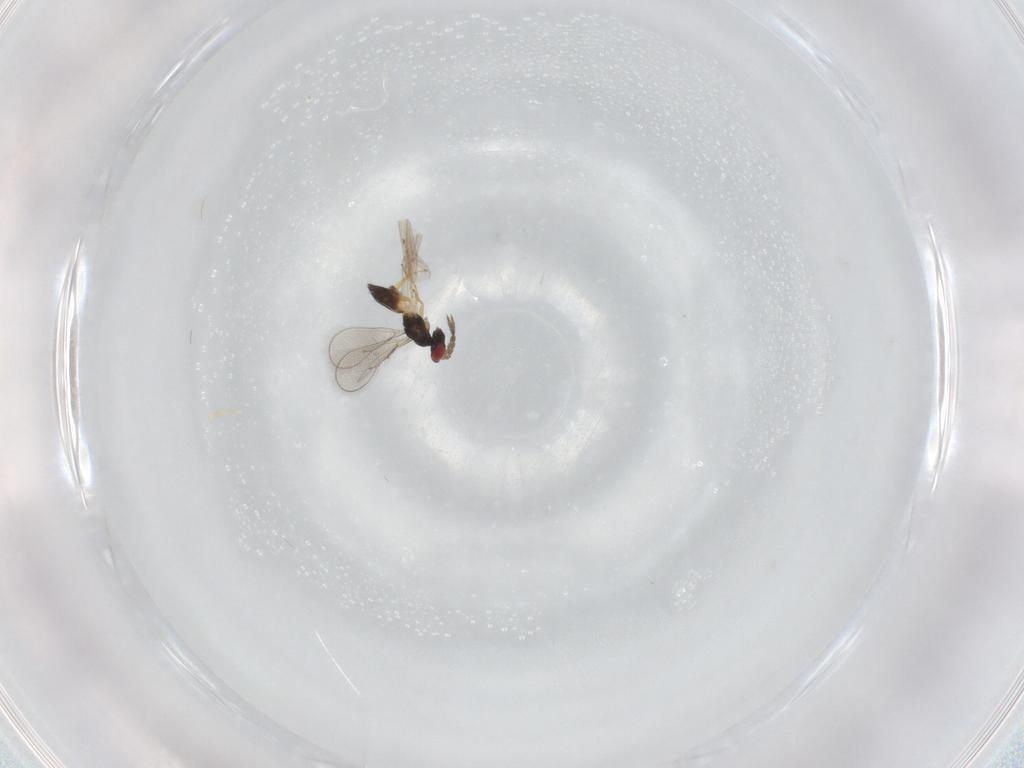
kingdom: Animalia
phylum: Arthropoda
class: Insecta
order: Hymenoptera
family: Eulophidae
